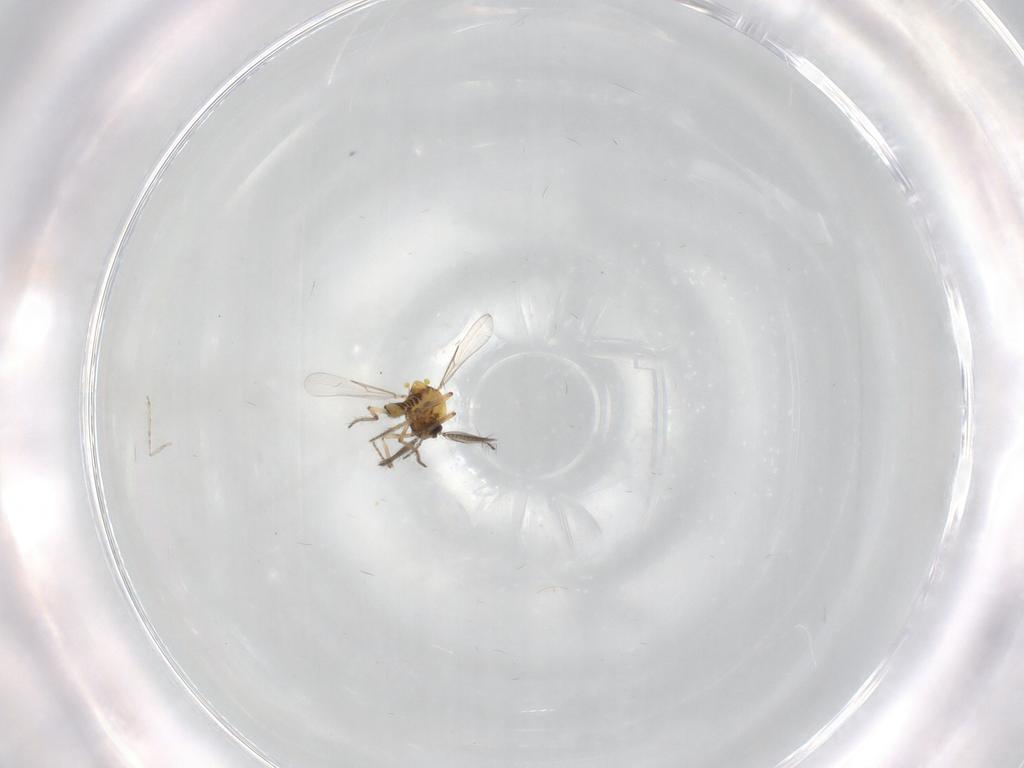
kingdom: Animalia
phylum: Arthropoda
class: Insecta
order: Diptera
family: Cecidomyiidae
